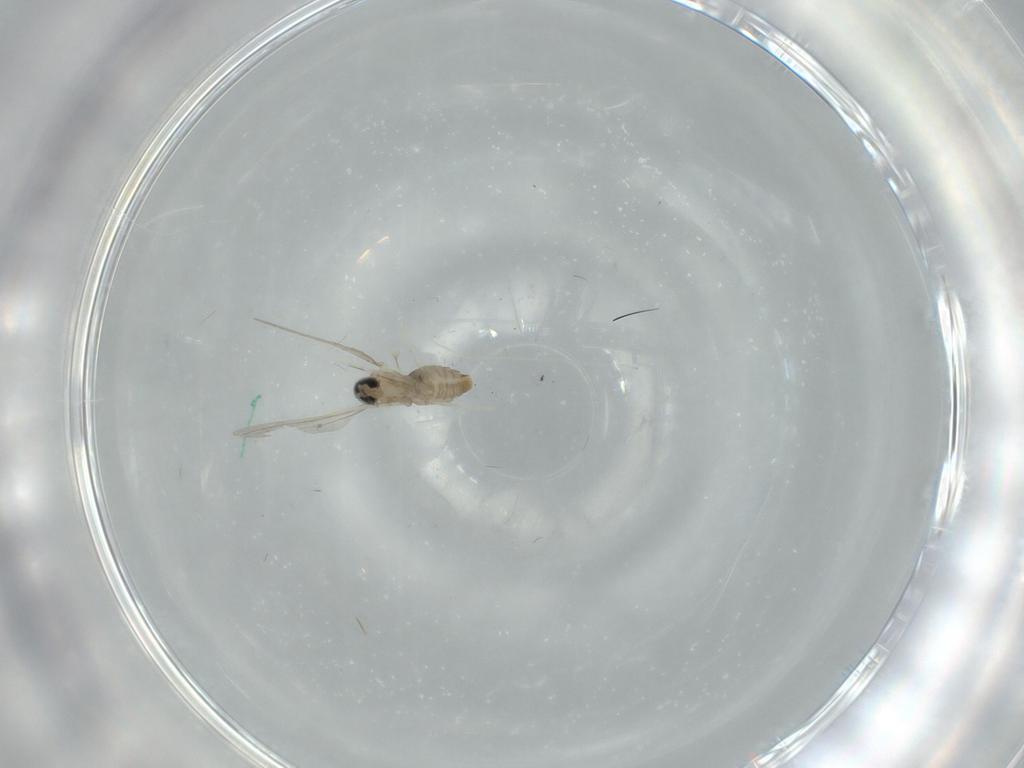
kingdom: Animalia
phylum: Arthropoda
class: Insecta
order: Diptera
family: Cecidomyiidae
